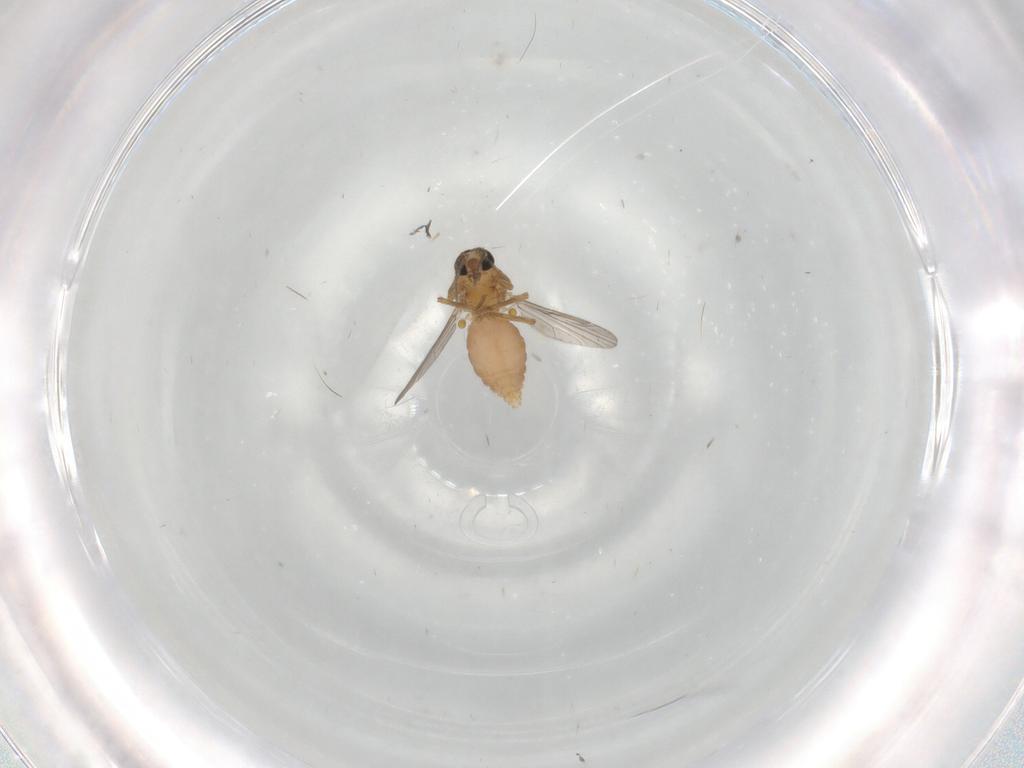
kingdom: Animalia
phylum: Arthropoda
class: Insecta
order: Diptera
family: Ceratopogonidae
